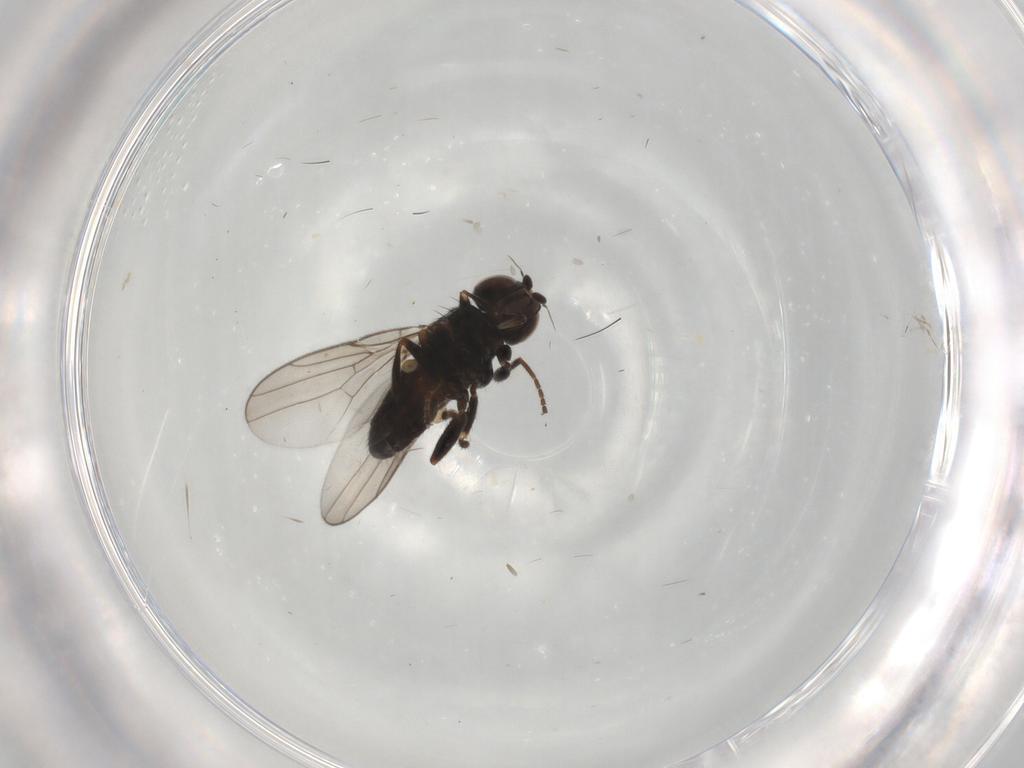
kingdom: Animalia
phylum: Arthropoda
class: Insecta
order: Diptera
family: Chloropidae
